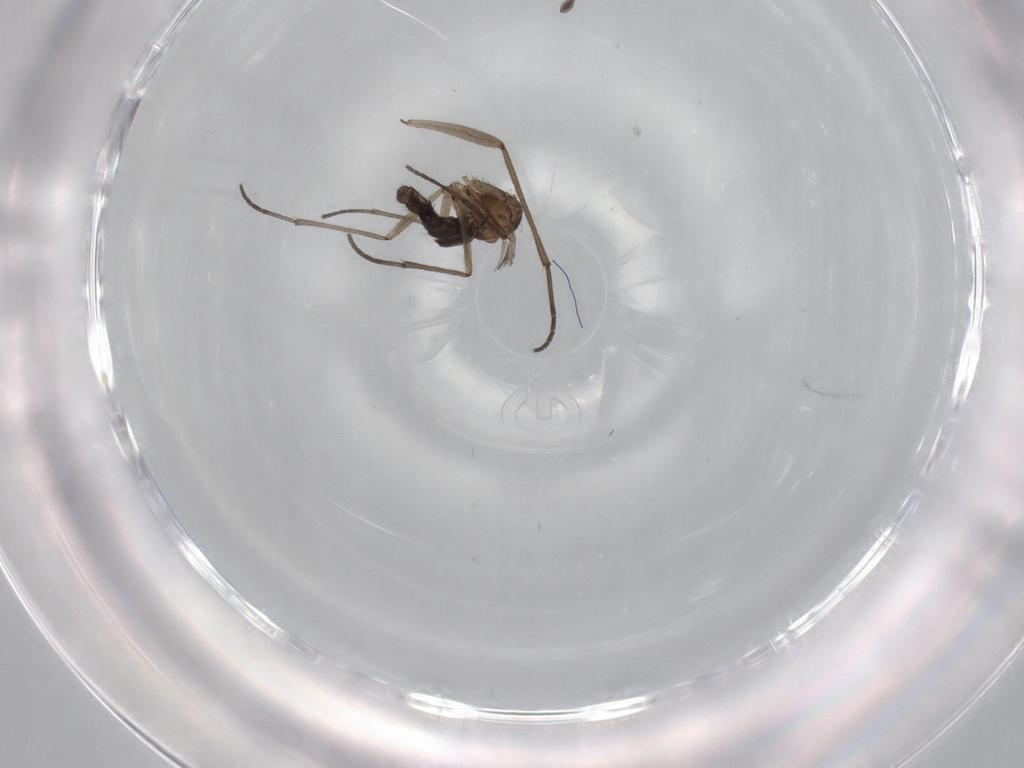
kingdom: Animalia
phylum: Arthropoda
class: Insecta
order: Diptera
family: Sciaridae
